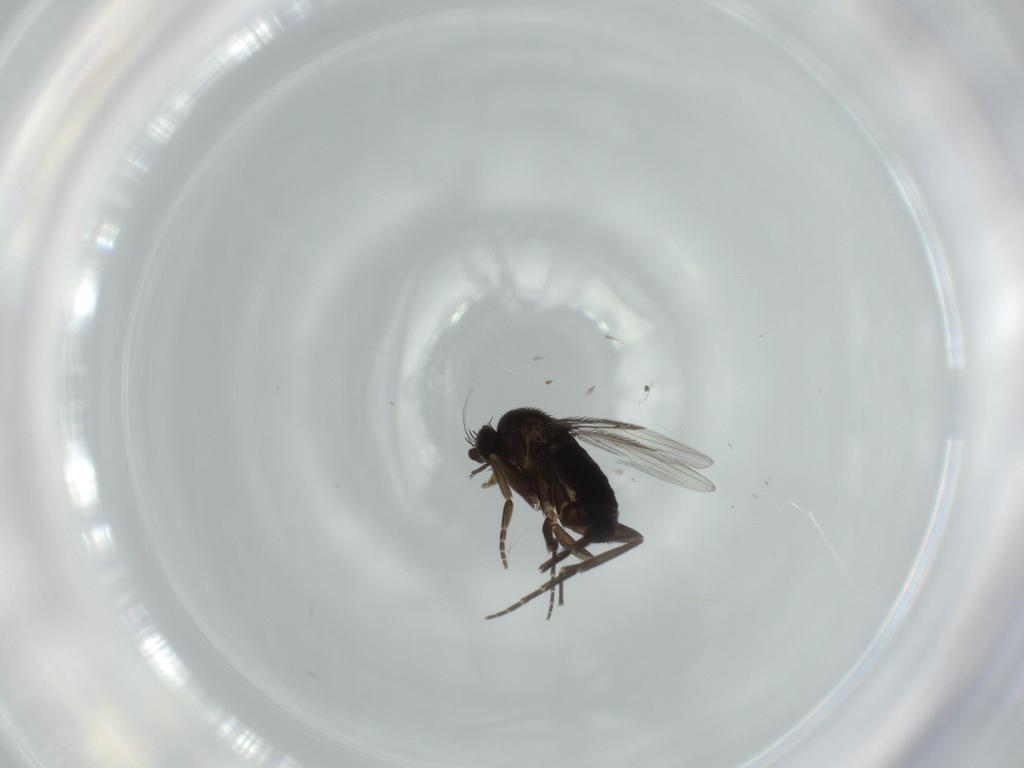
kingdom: Animalia
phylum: Arthropoda
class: Insecta
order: Diptera
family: Phoridae
